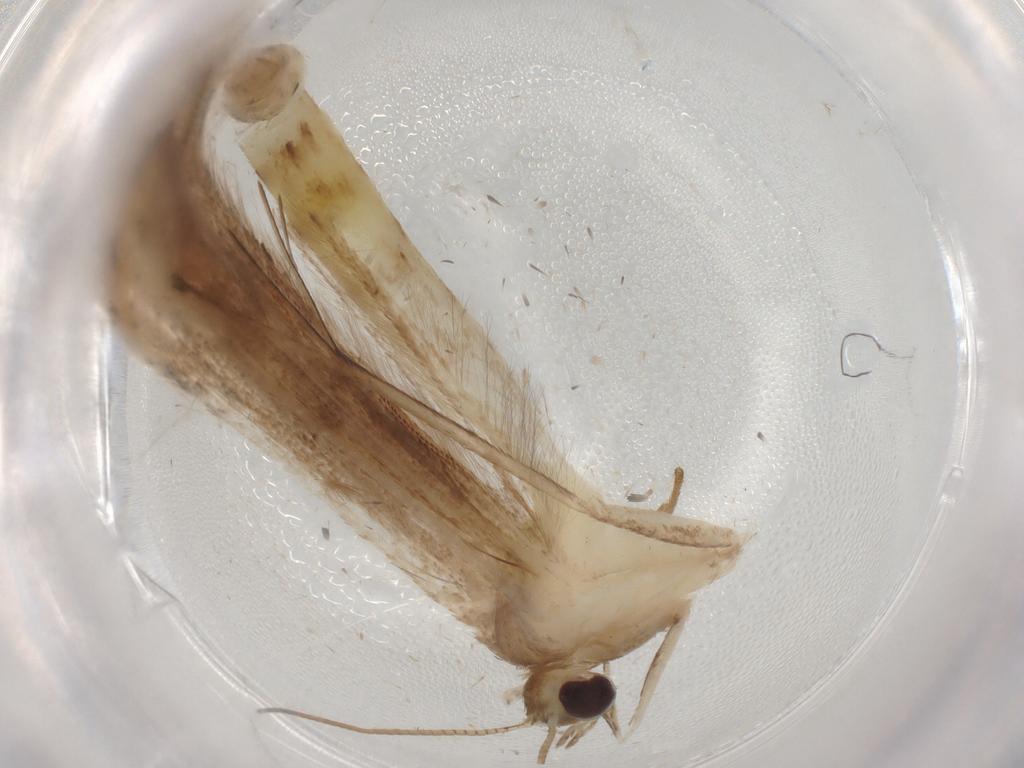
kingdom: Animalia
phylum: Arthropoda
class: Insecta
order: Lepidoptera
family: Elachistidae
